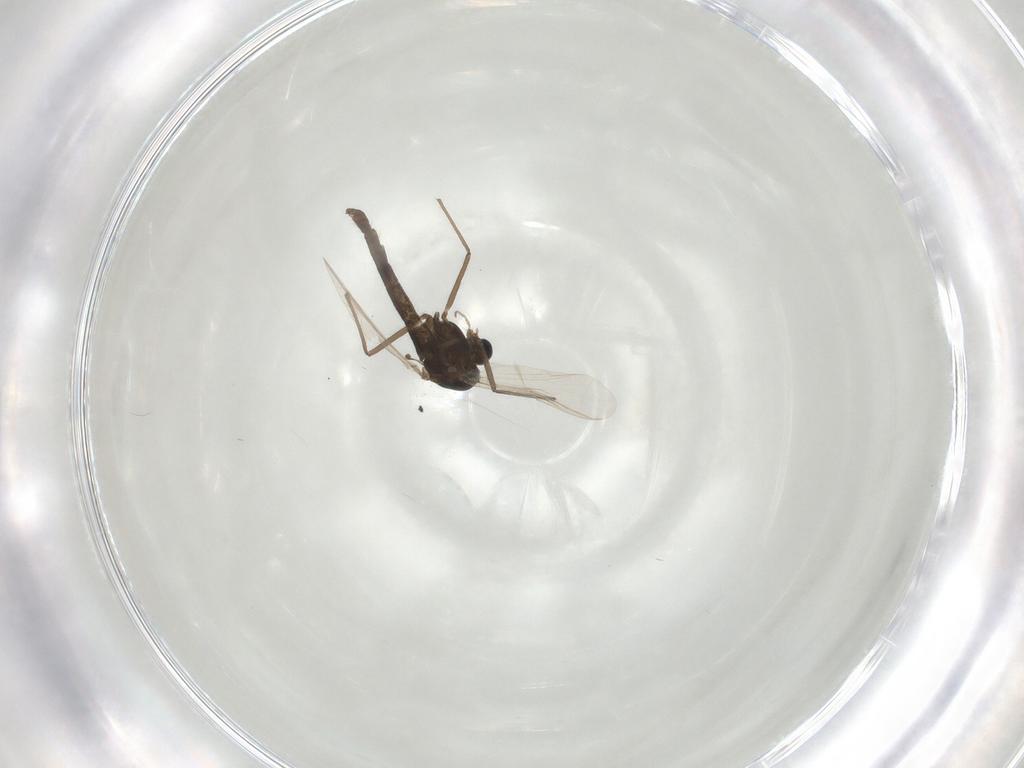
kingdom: Animalia
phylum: Arthropoda
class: Insecta
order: Diptera
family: Chironomidae
